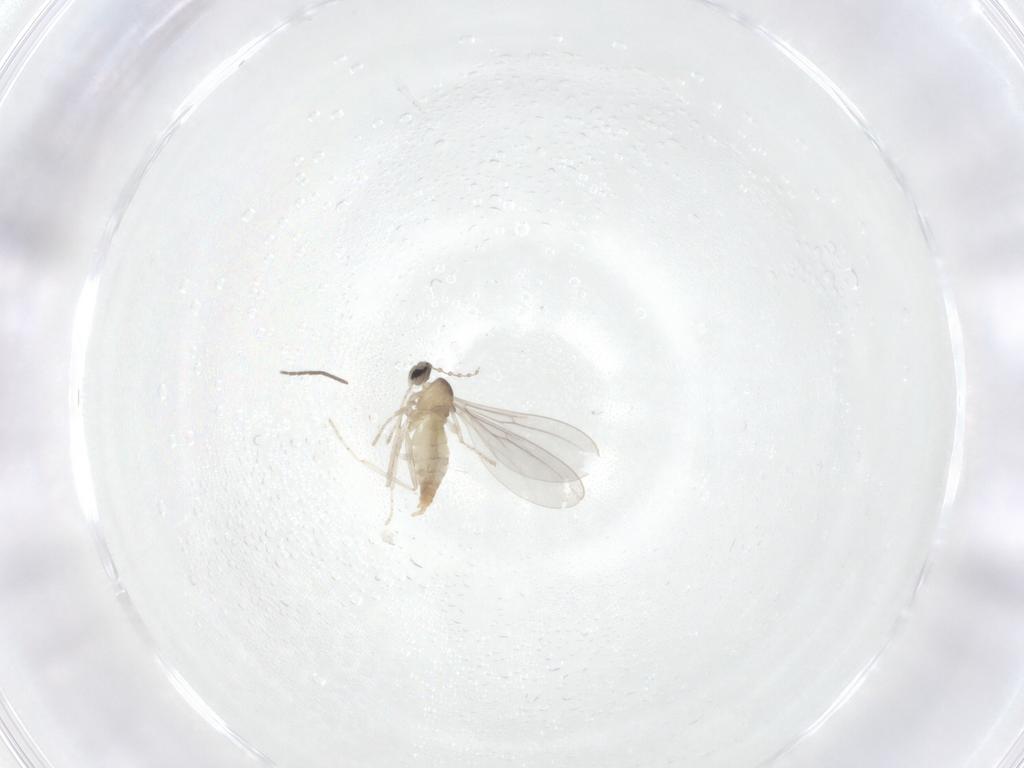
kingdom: Animalia
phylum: Arthropoda
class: Insecta
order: Diptera
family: Chironomidae
